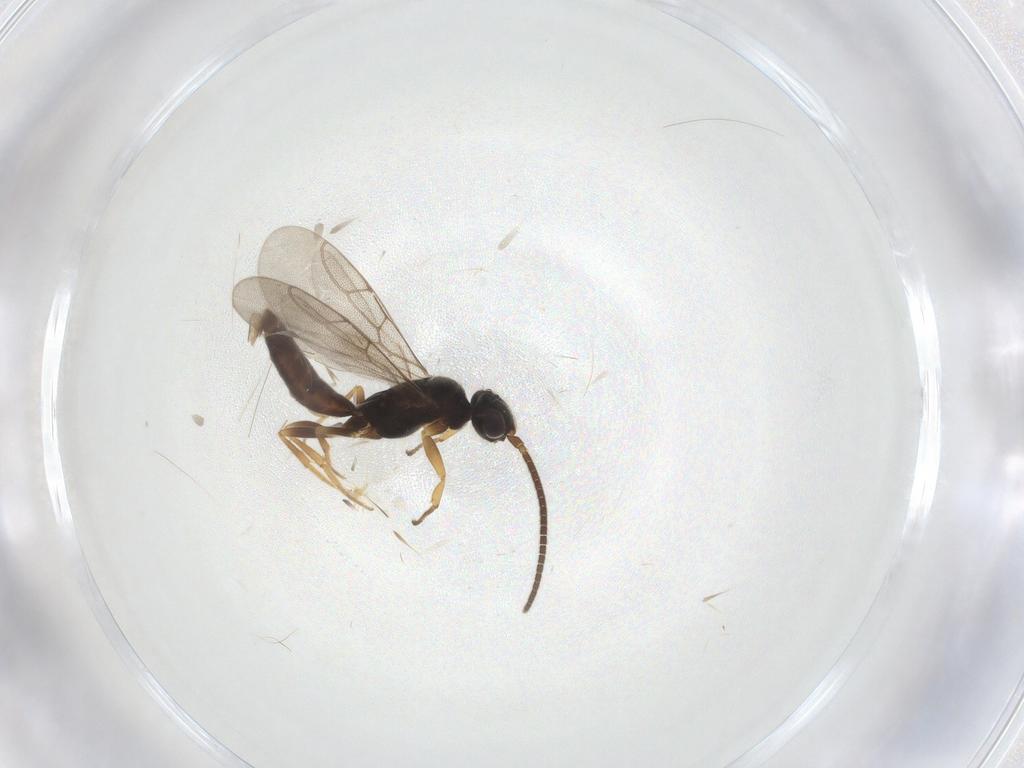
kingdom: Animalia
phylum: Arthropoda
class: Insecta
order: Hymenoptera
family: Sclerogibbidae
